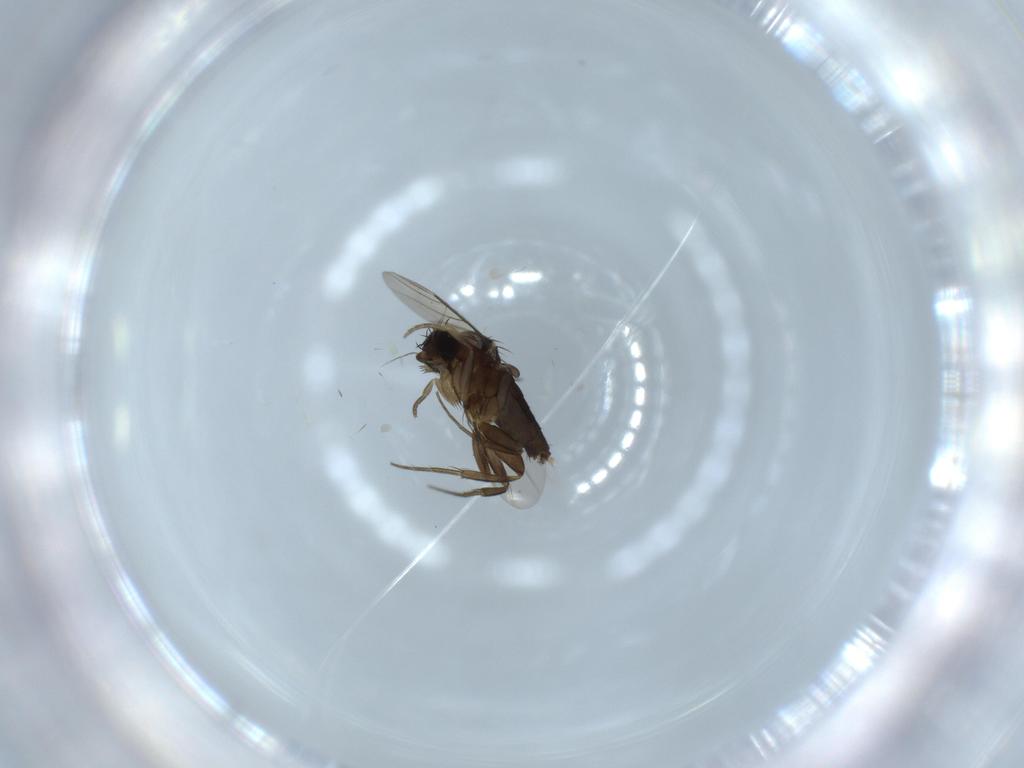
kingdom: Animalia
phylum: Arthropoda
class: Insecta
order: Diptera
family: Phoridae
